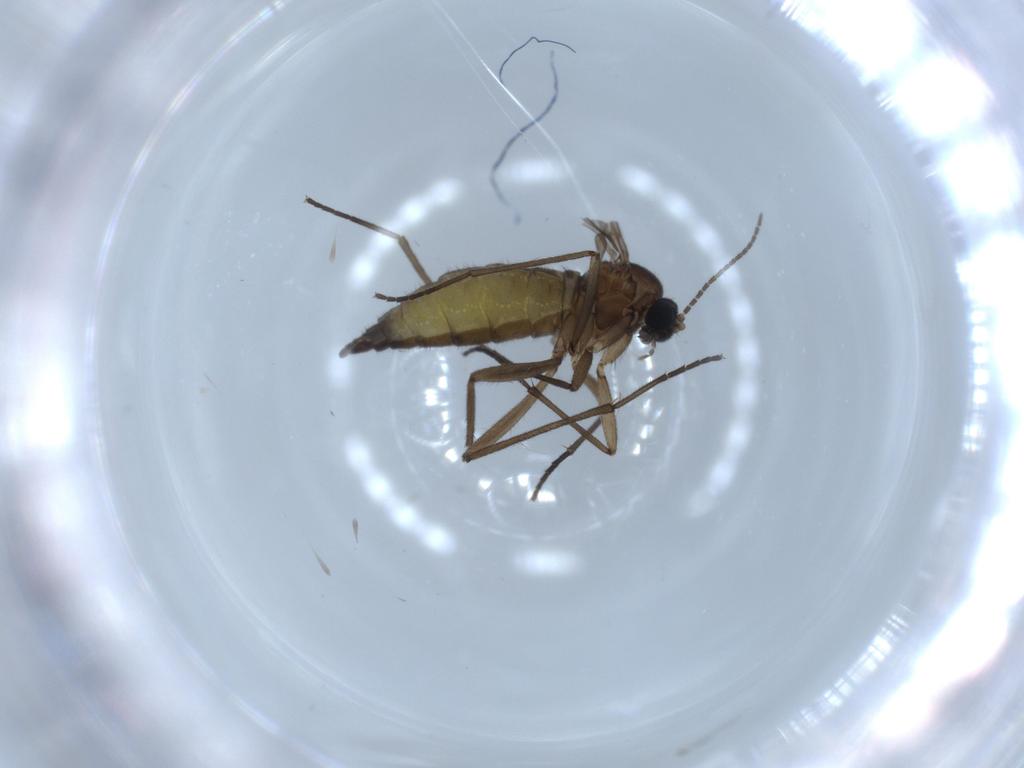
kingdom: Animalia
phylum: Arthropoda
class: Insecta
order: Diptera
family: Sciaridae
